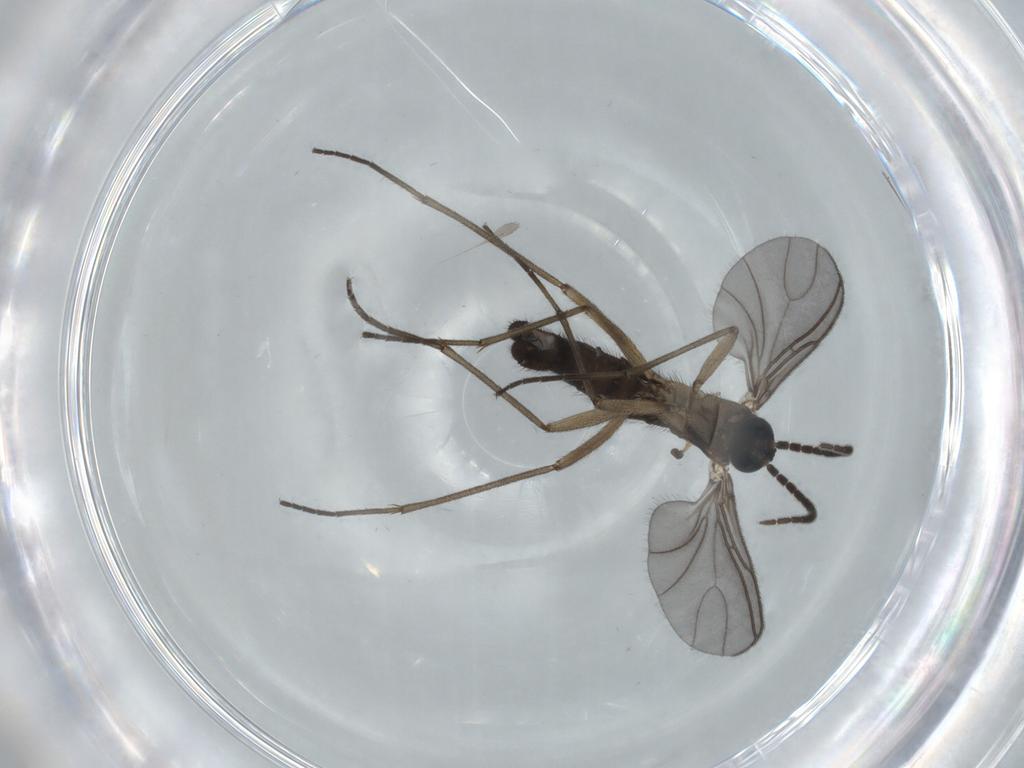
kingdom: Animalia
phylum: Arthropoda
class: Insecta
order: Diptera
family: Sciaridae
